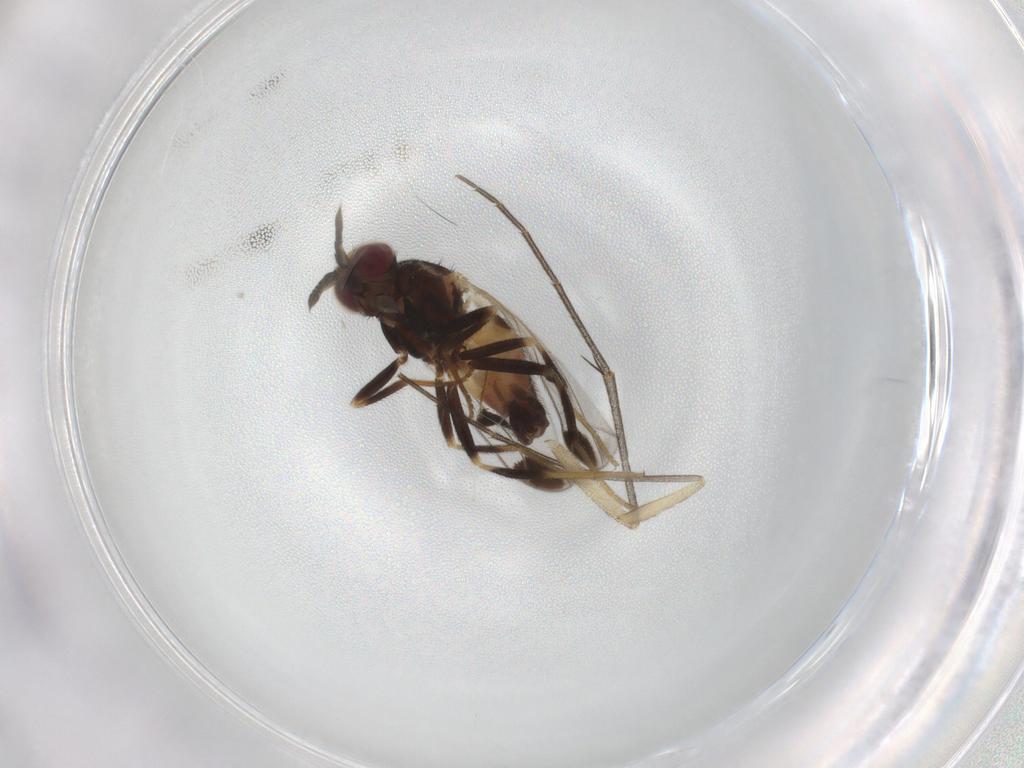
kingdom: Animalia
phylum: Arthropoda
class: Insecta
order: Diptera
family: Chloropidae
